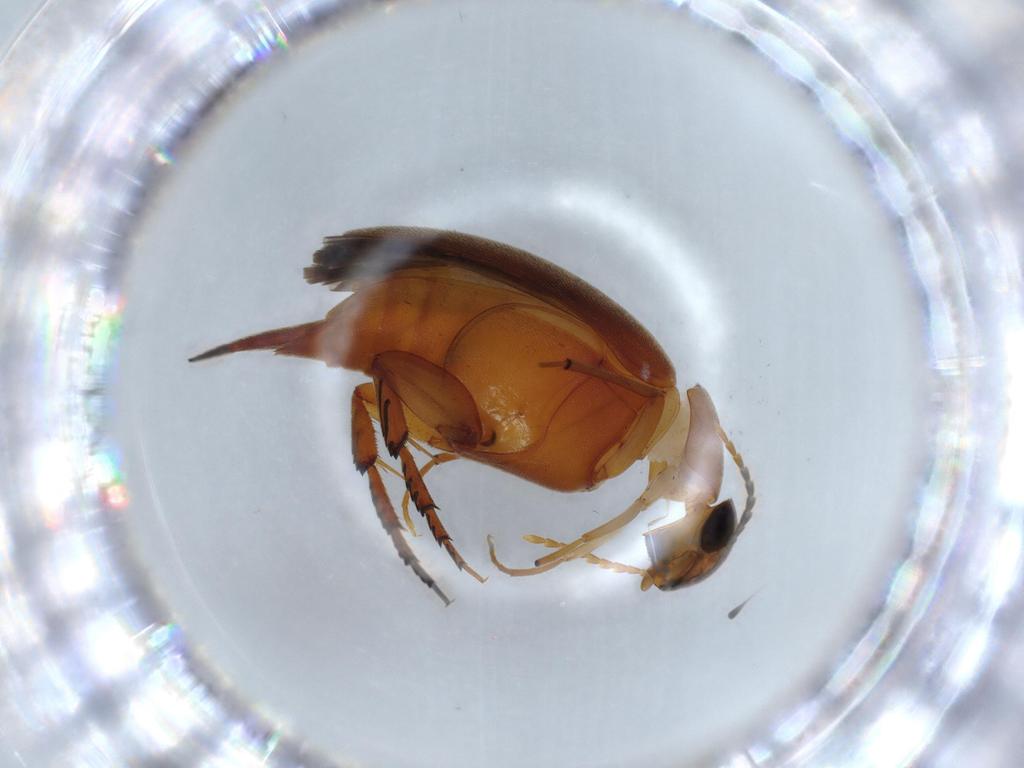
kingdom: Animalia
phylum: Arthropoda
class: Insecta
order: Coleoptera
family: Mordellidae
